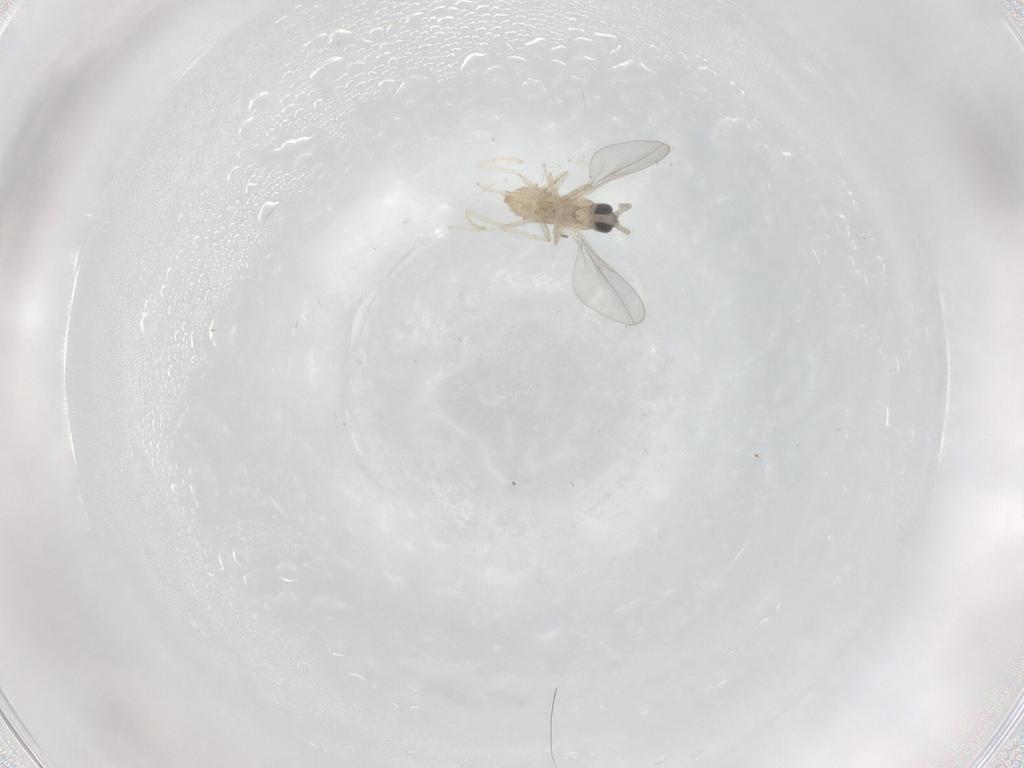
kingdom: Animalia
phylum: Arthropoda
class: Insecta
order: Diptera
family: Cecidomyiidae
